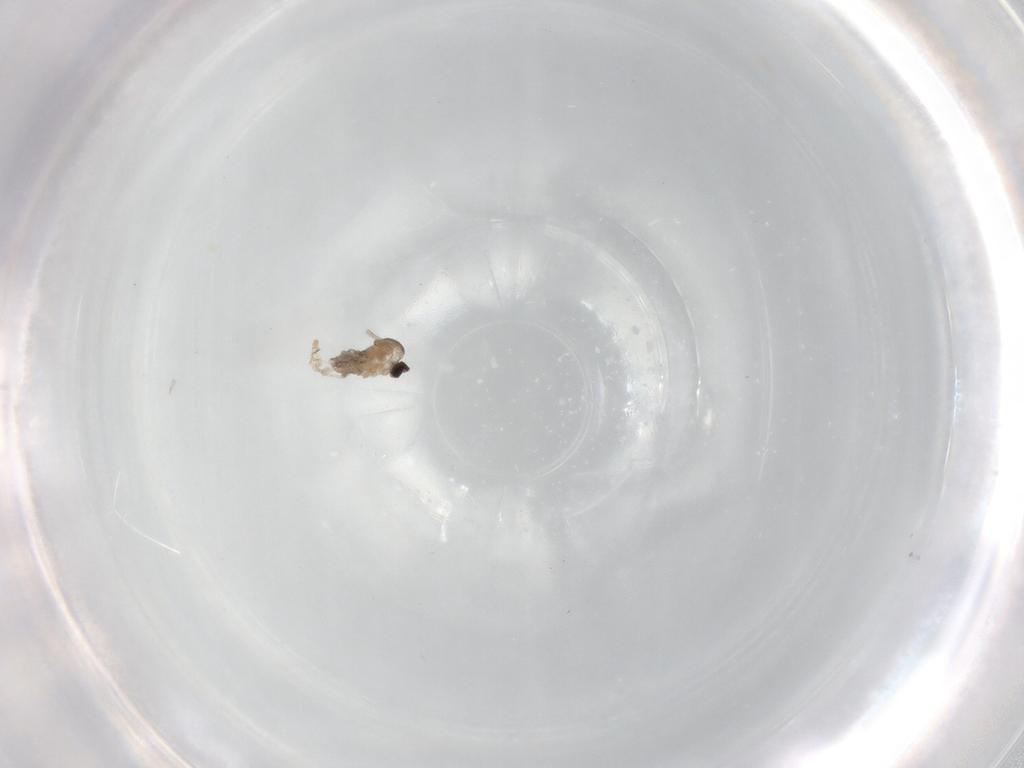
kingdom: Animalia
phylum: Arthropoda
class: Insecta
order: Diptera
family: Cecidomyiidae
